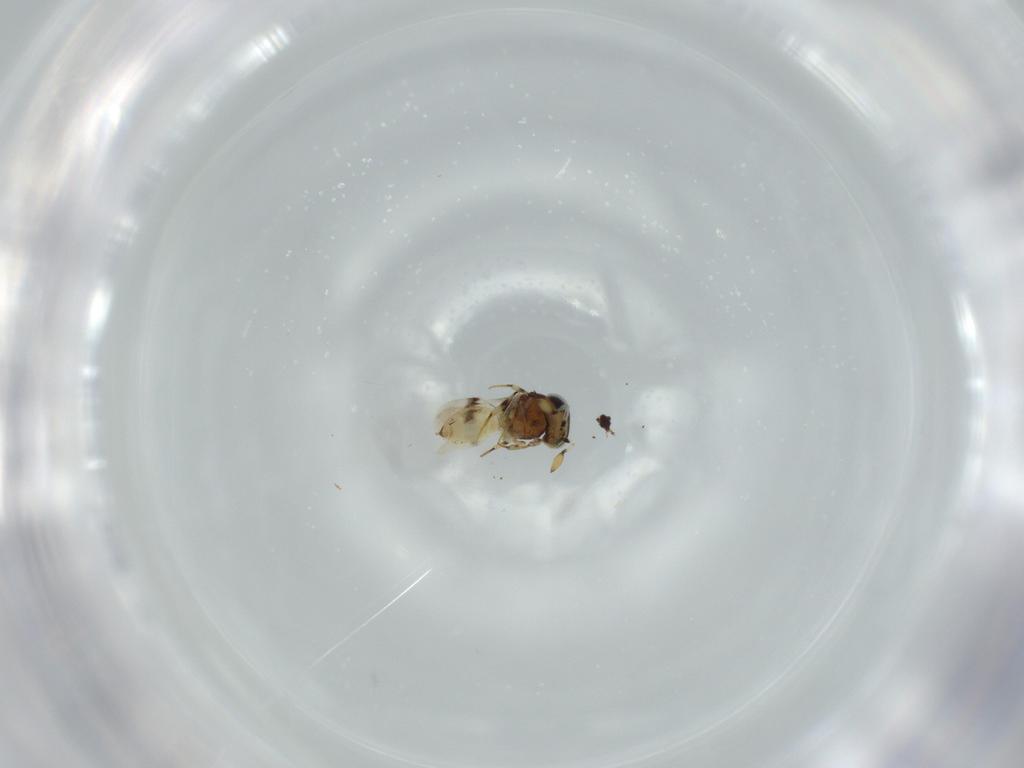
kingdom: Animalia
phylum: Arthropoda
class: Insecta
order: Hymenoptera
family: Scelionidae
